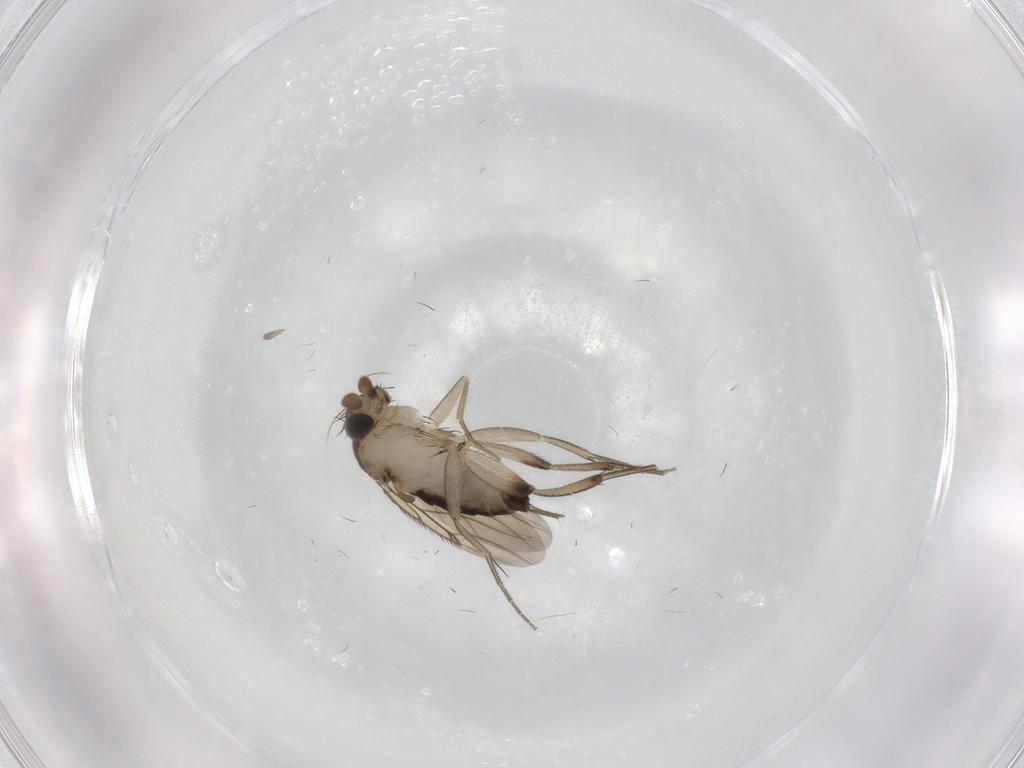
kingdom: Animalia
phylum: Arthropoda
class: Insecta
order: Diptera
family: Phoridae
